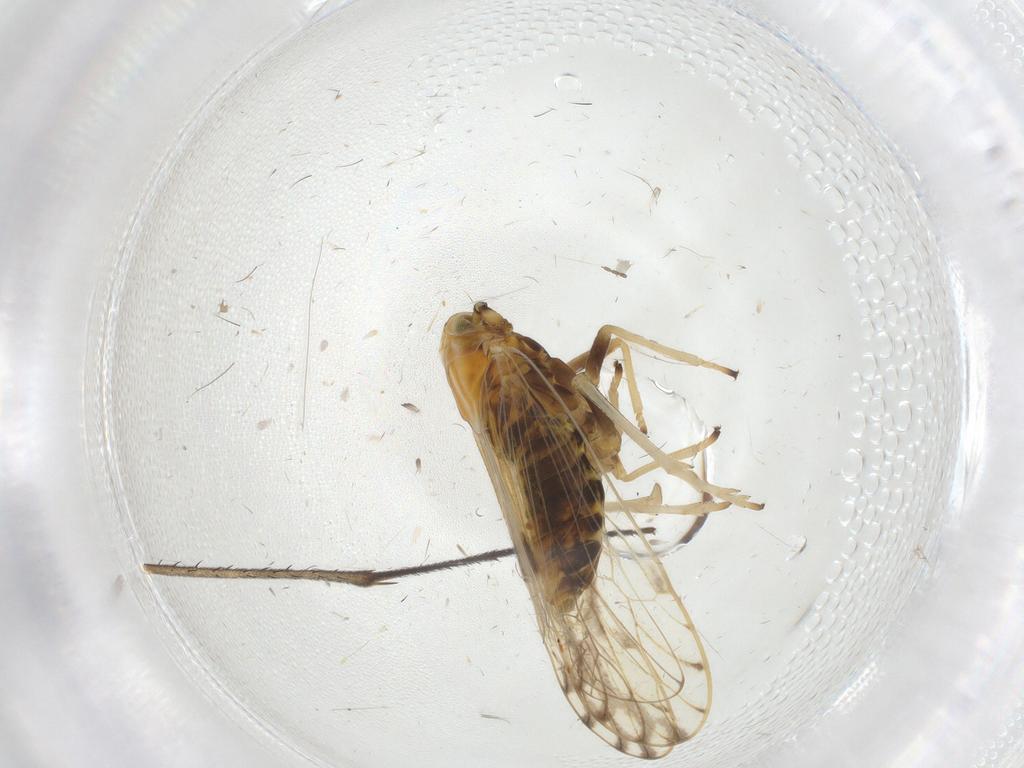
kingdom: Animalia
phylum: Arthropoda
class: Insecta
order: Hemiptera
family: Delphacidae
